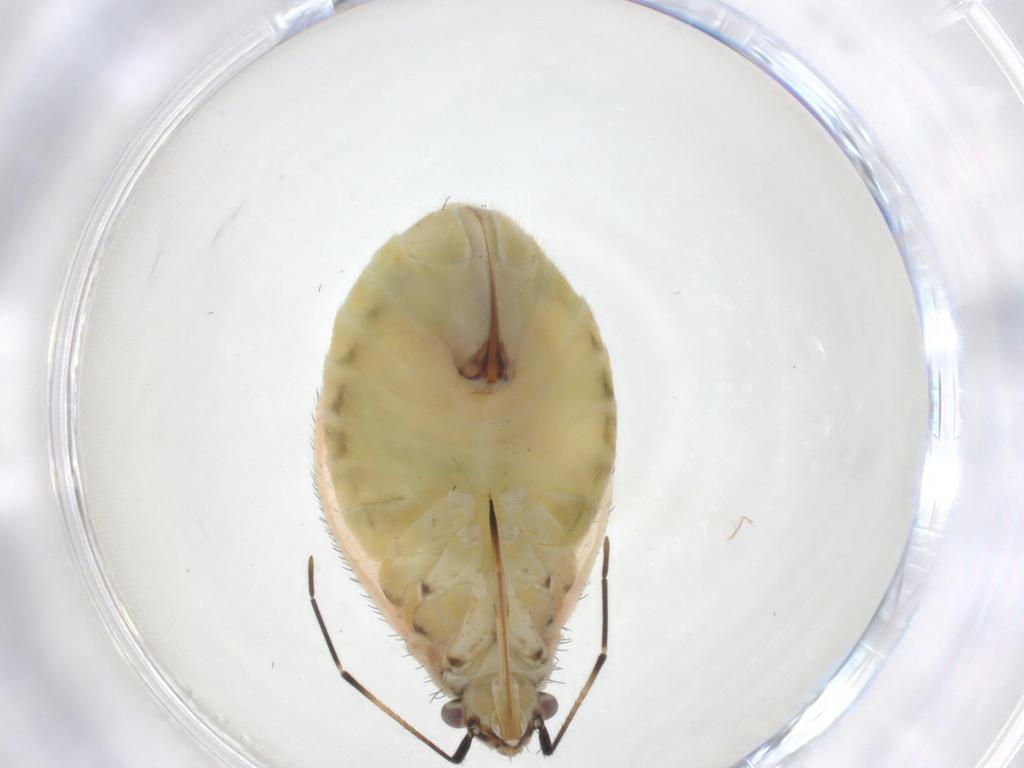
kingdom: Animalia
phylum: Arthropoda
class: Insecta
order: Hemiptera
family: Miridae
